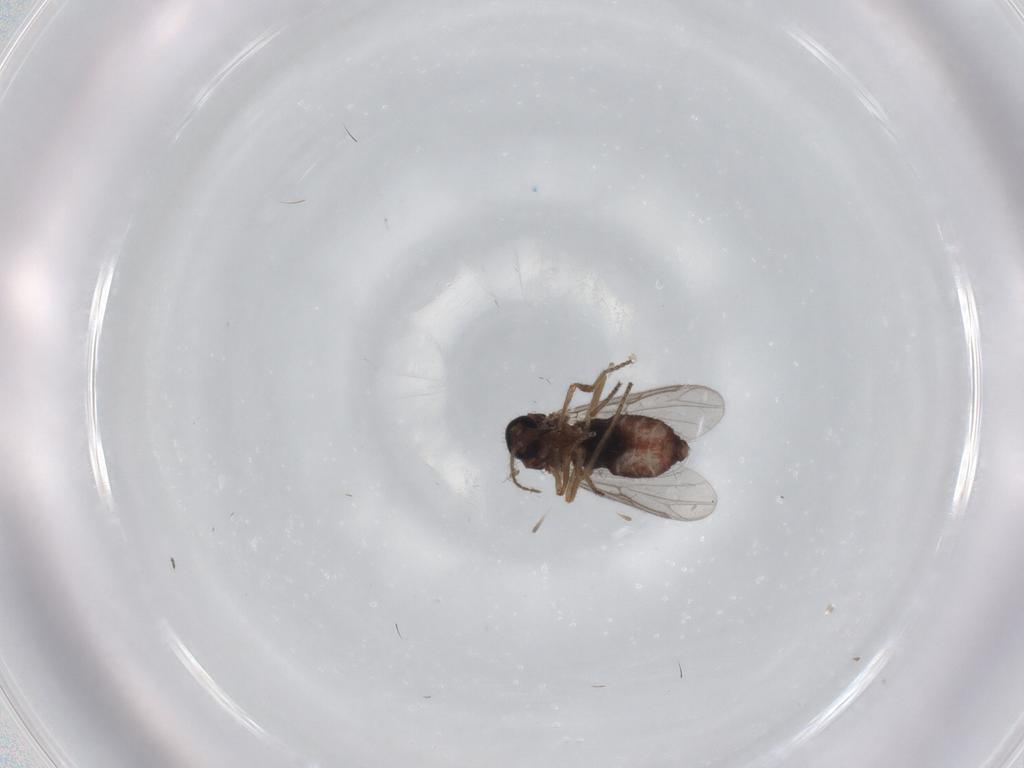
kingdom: Animalia
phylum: Arthropoda
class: Insecta
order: Diptera
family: Ceratopogonidae
